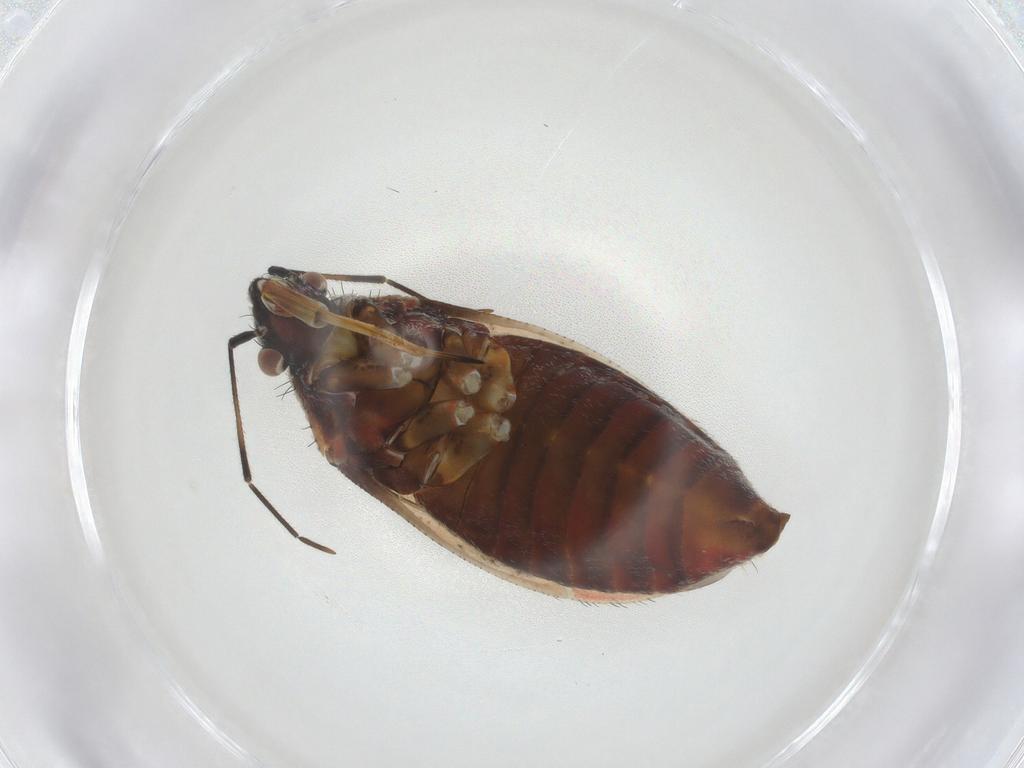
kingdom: Animalia
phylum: Arthropoda
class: Insecta
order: Hemiptera
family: Miridae
